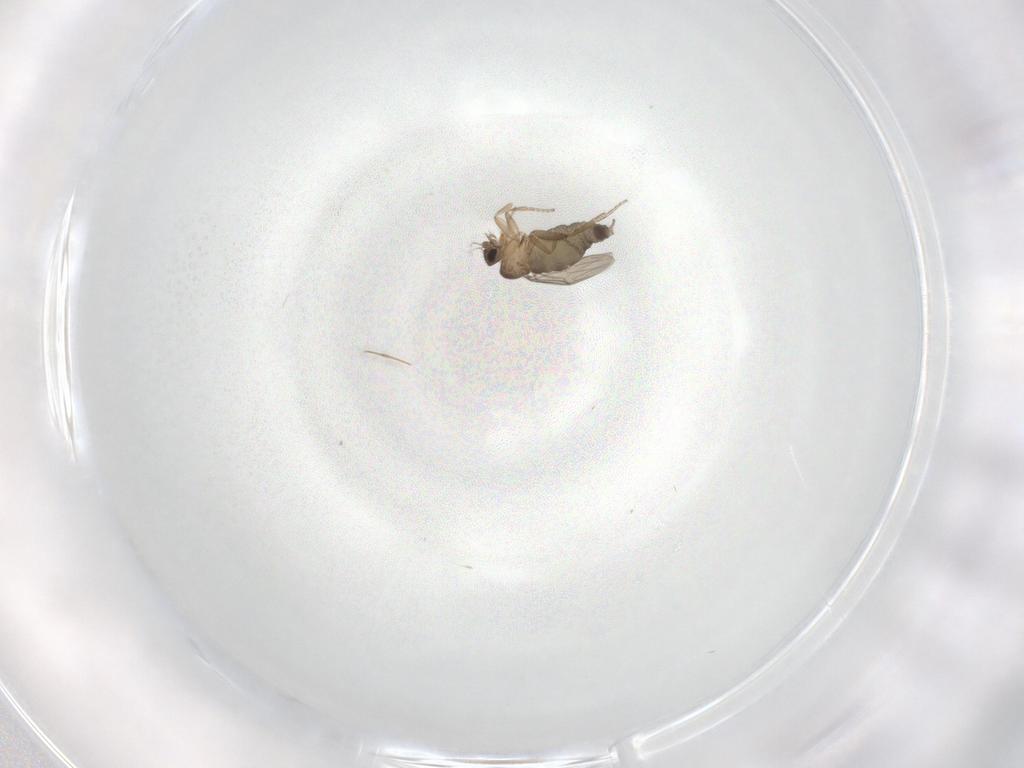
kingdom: Animalia
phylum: Arthropoda
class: Insecta
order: Diptera
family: Phoridae
